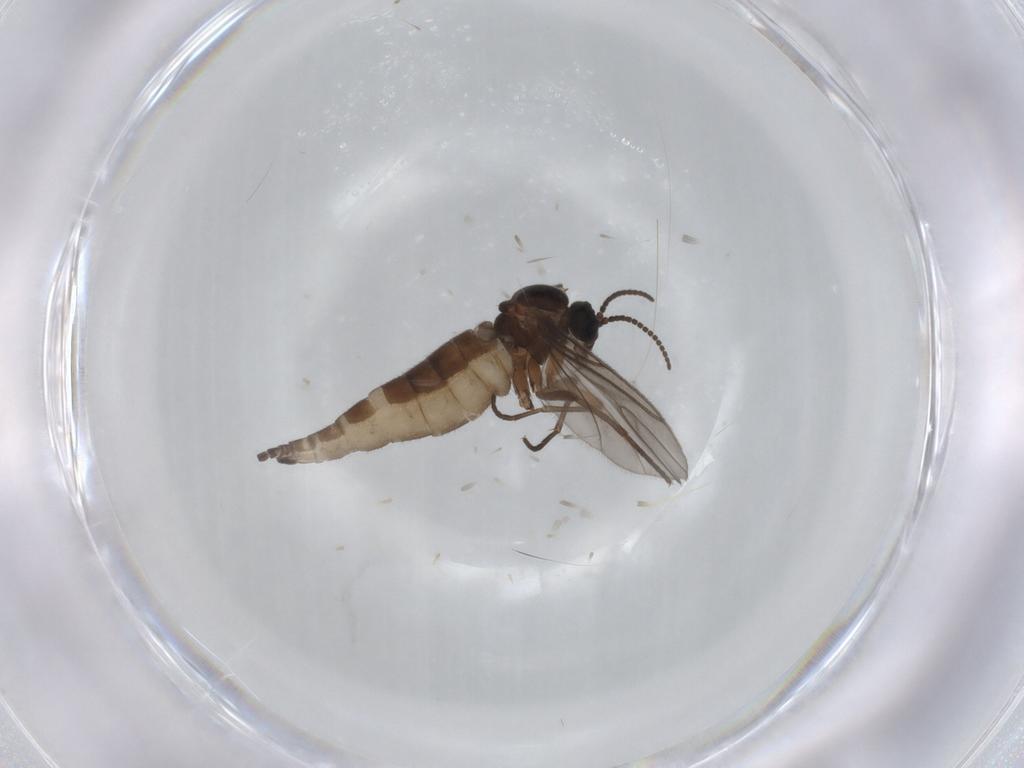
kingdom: Animalia
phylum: Arthropoda
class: Insecta
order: Diptera
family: Sciaridae
